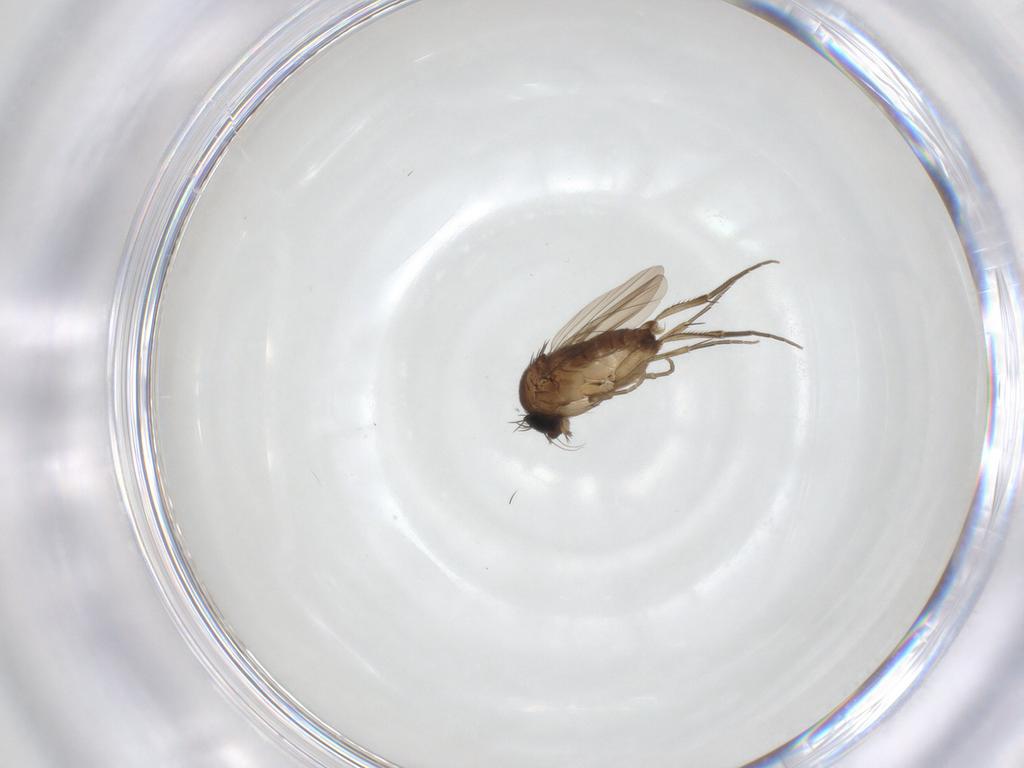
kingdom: Animalia
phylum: Arthropoda
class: Insecta
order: Diptera
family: Phoridae
